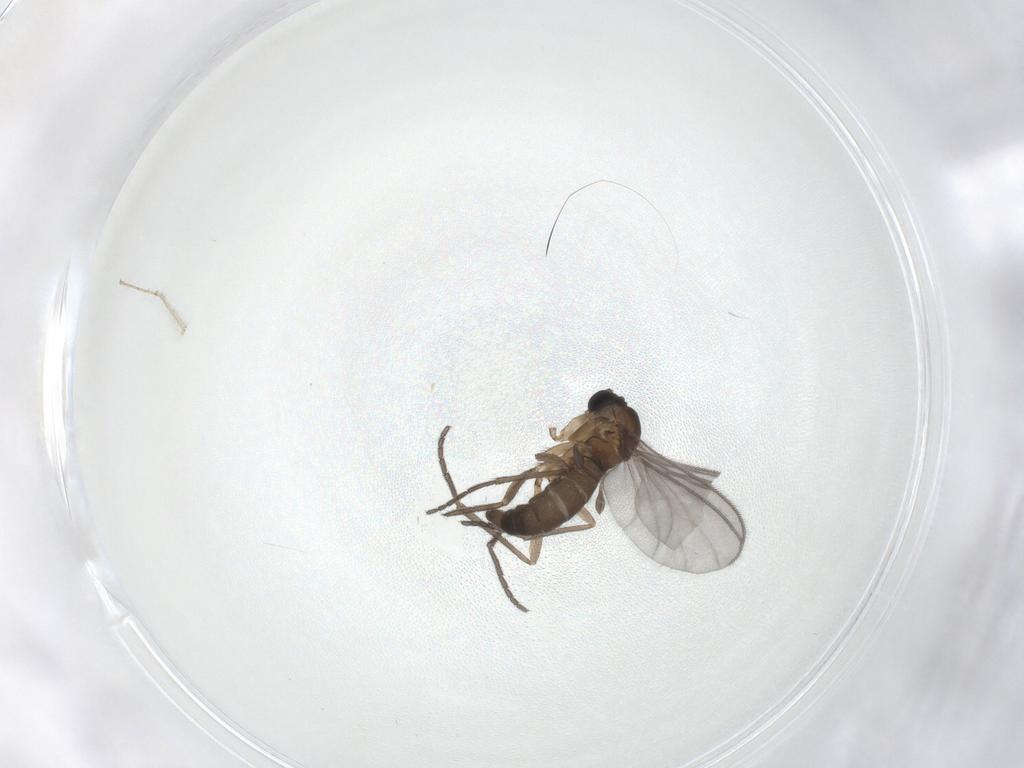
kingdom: Animalia
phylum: Arthropoda
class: Insecta
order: Diptera
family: Sciaridae
